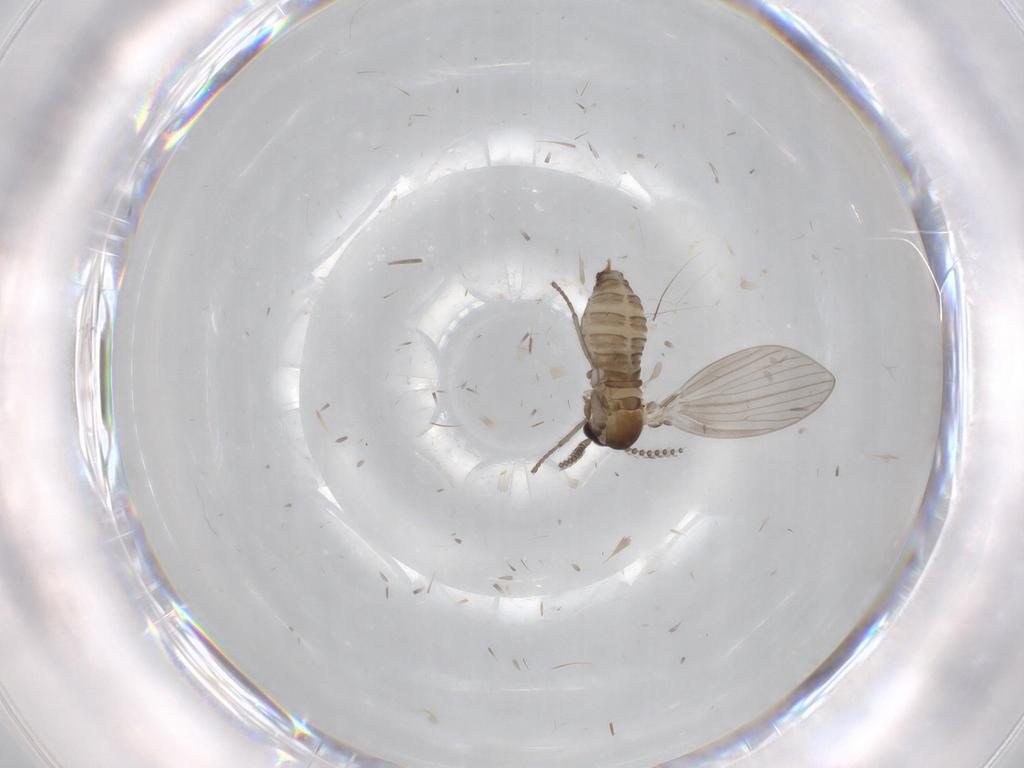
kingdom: Animalia
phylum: Arthropoda
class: Insecta
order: Diptera
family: Psychodidae
